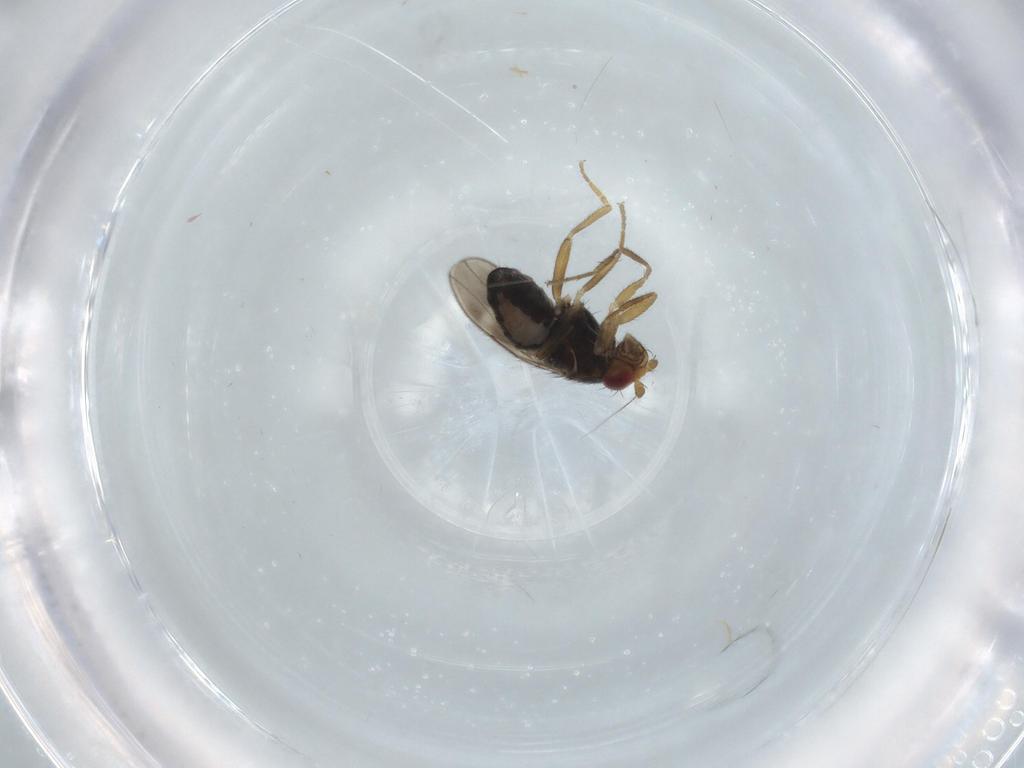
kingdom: Animalia
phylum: Arthropoda
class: Insecta
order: Diptera
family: Sphaeroceridae
